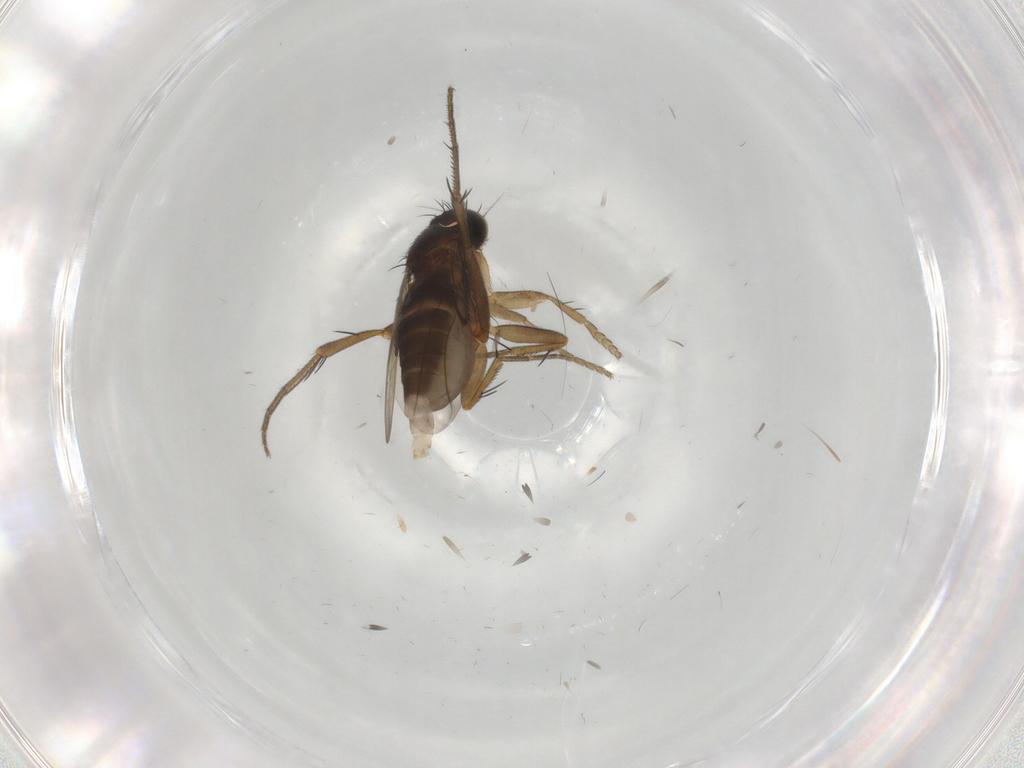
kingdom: Animalia
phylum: Arthropoda
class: Insecta
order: Diptera
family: Phoridae
